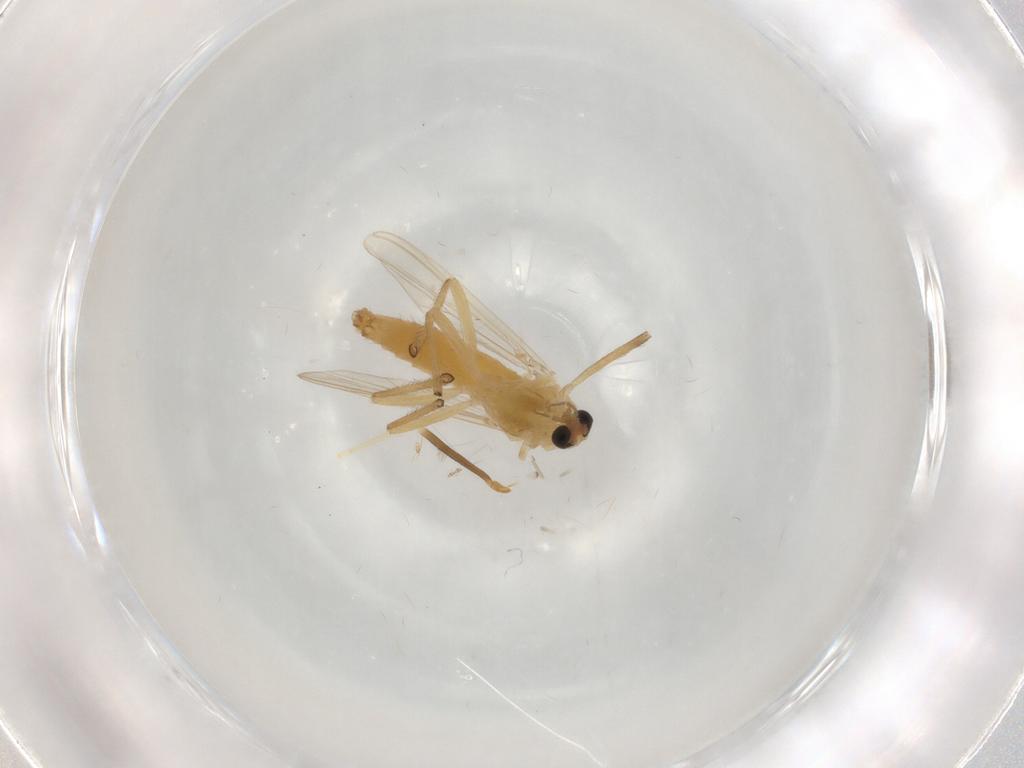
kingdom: Animalia
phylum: Arthropoda
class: Insecta
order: Diptera
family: Chironomidae
